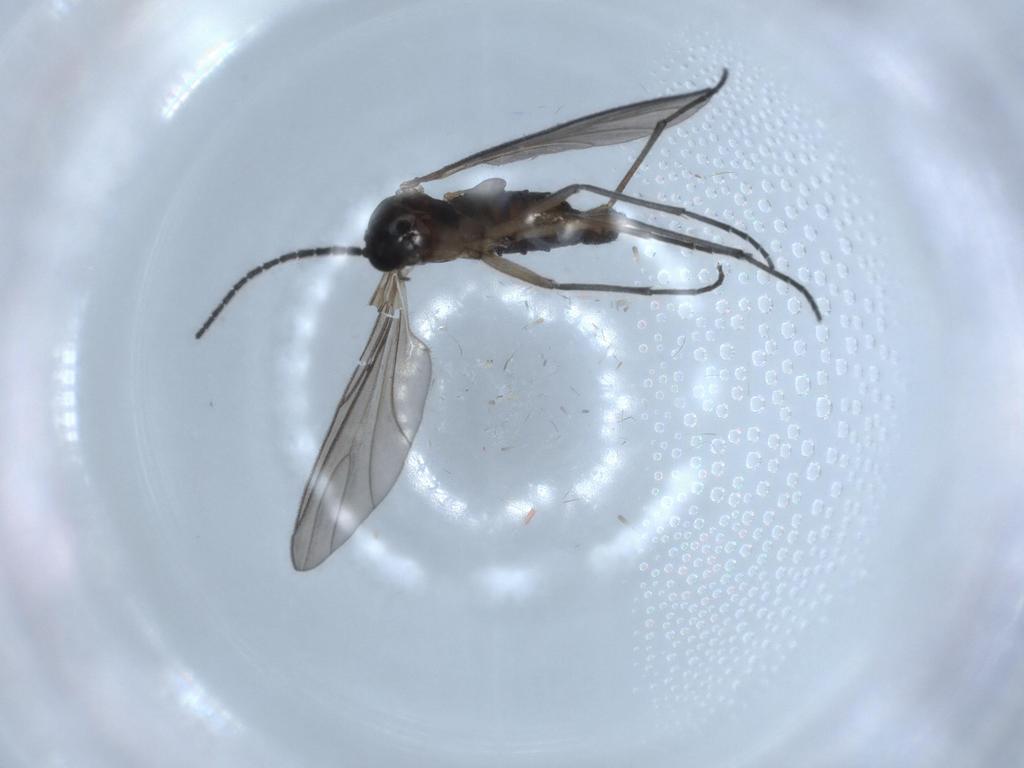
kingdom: Animalia
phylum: Arthropoda
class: Insecta
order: Diptera
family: Sciaridae
